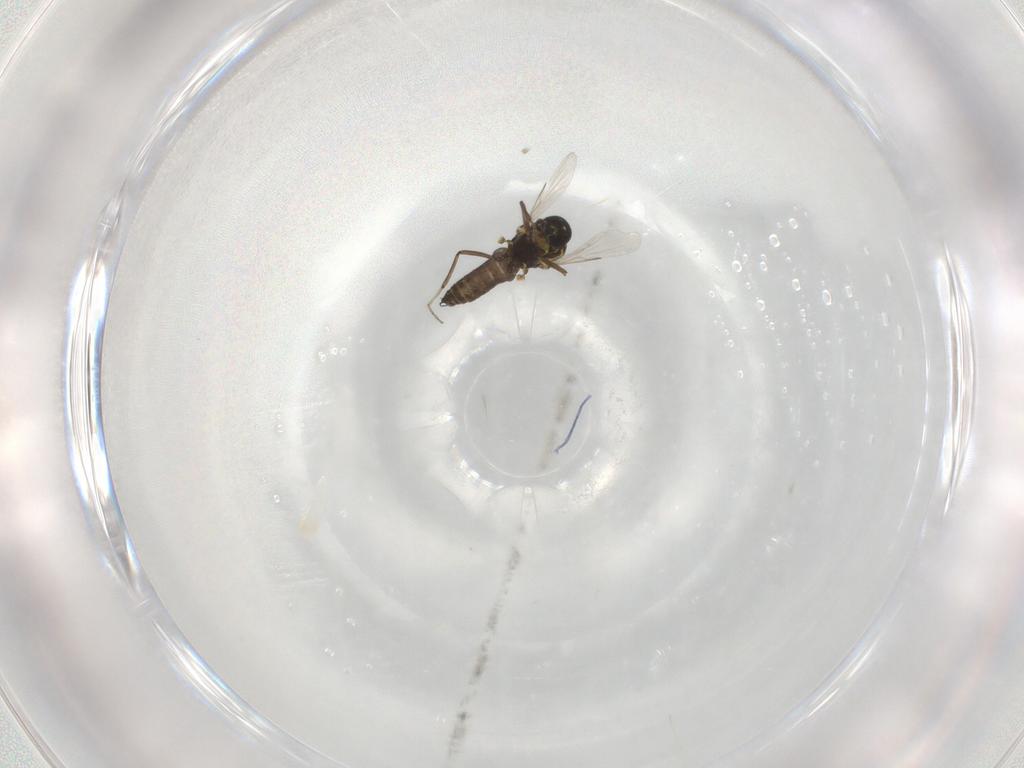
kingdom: Animalia
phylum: Arthropoda
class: Insecta
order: Diptera
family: Ceratopogonidae
